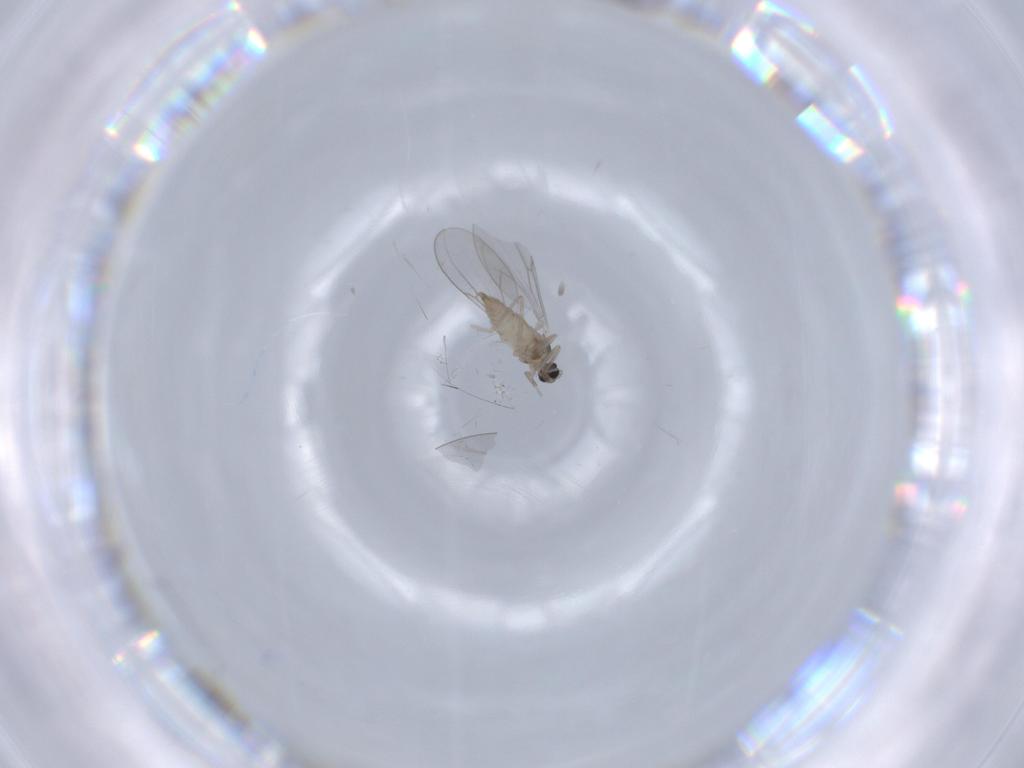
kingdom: Animalia
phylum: Arthropoda
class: Insecta
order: Diptera
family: Cecidomyiidae
